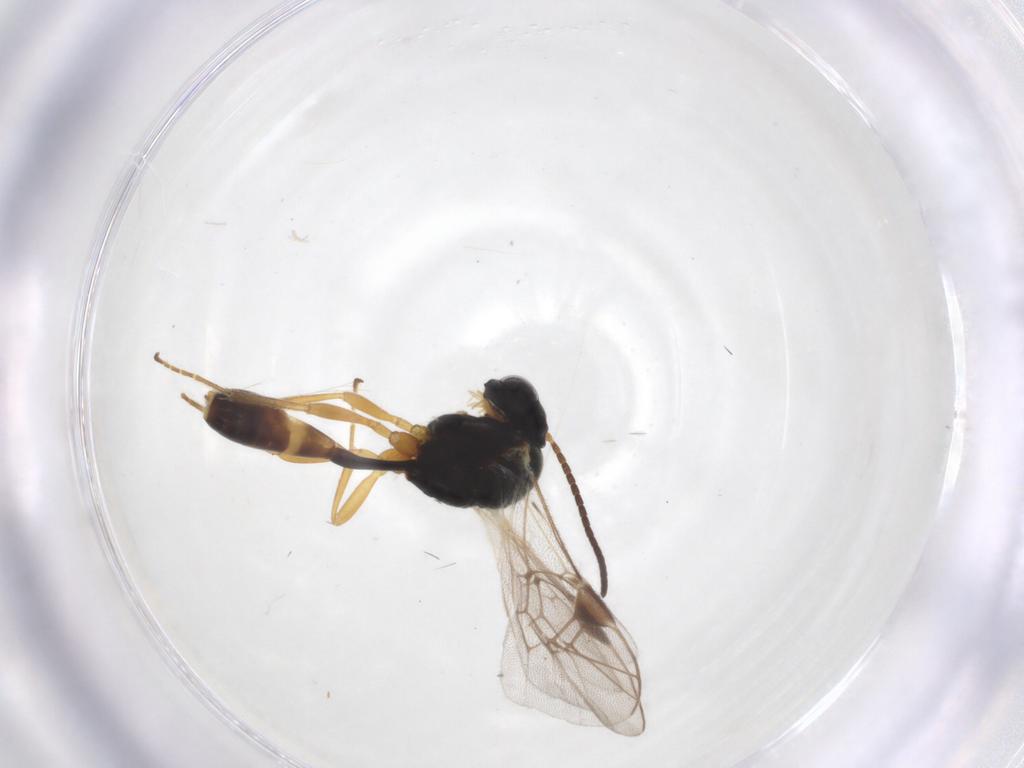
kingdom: Animalia
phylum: Arthropoda
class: Insecta
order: Hymenoptera
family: Ichneumonidae
